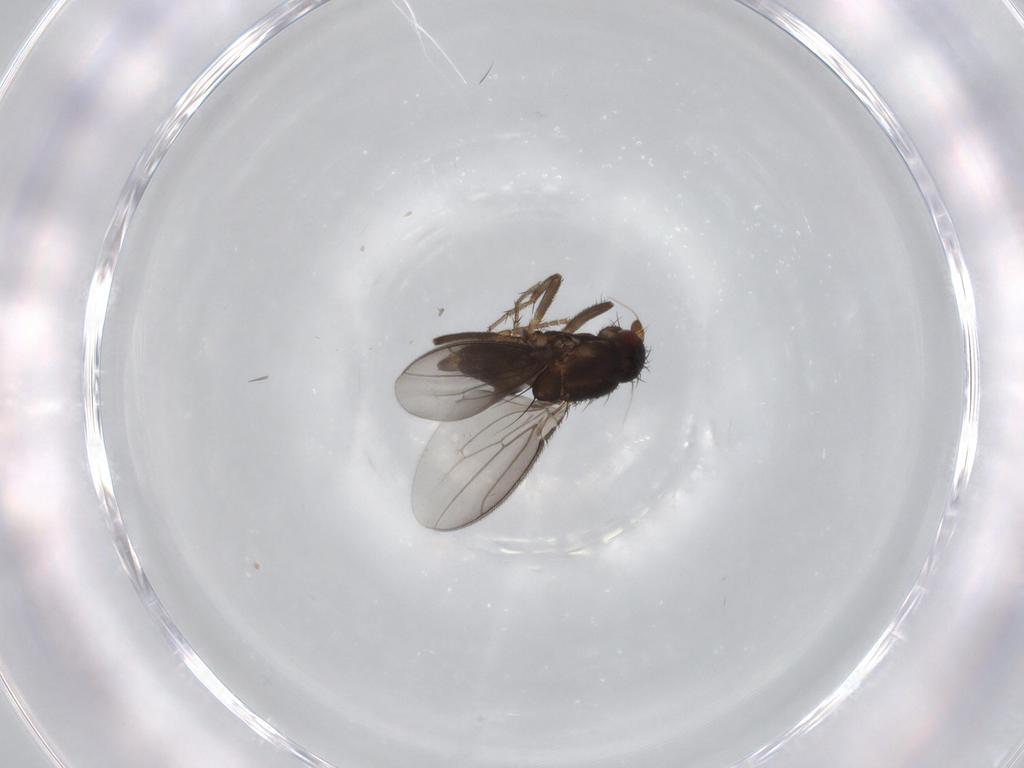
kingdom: Animalia
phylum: Arthropoda
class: Insecta
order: Diptera
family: Sphaeroceridae
